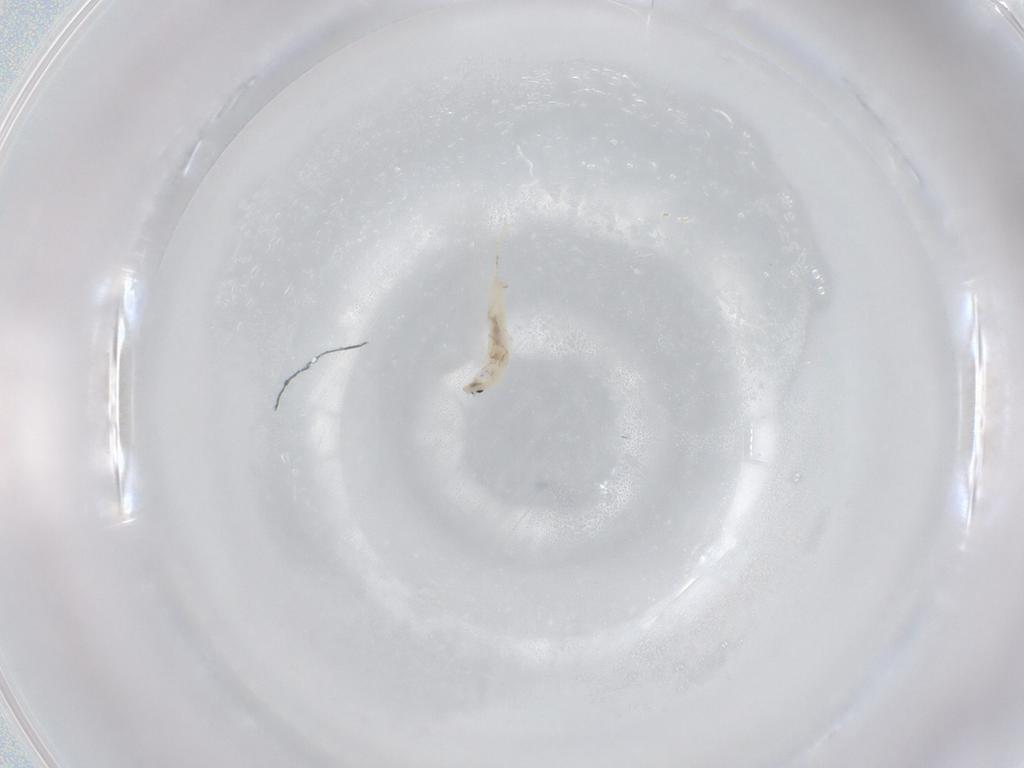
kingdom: Animalia
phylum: Arthropoda
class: Collembola
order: Entomobryomorpha
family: Entomobryidae
